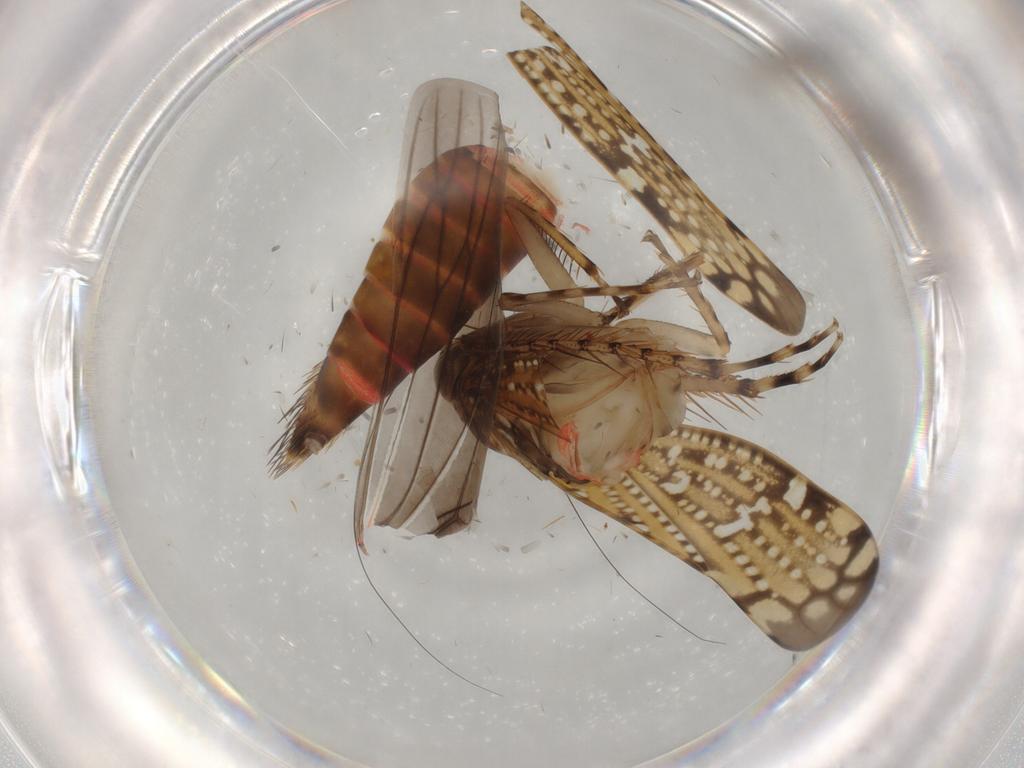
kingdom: Animalia
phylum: Arthropoda
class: Insecta
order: Hemiptera
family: Cicadellidae
